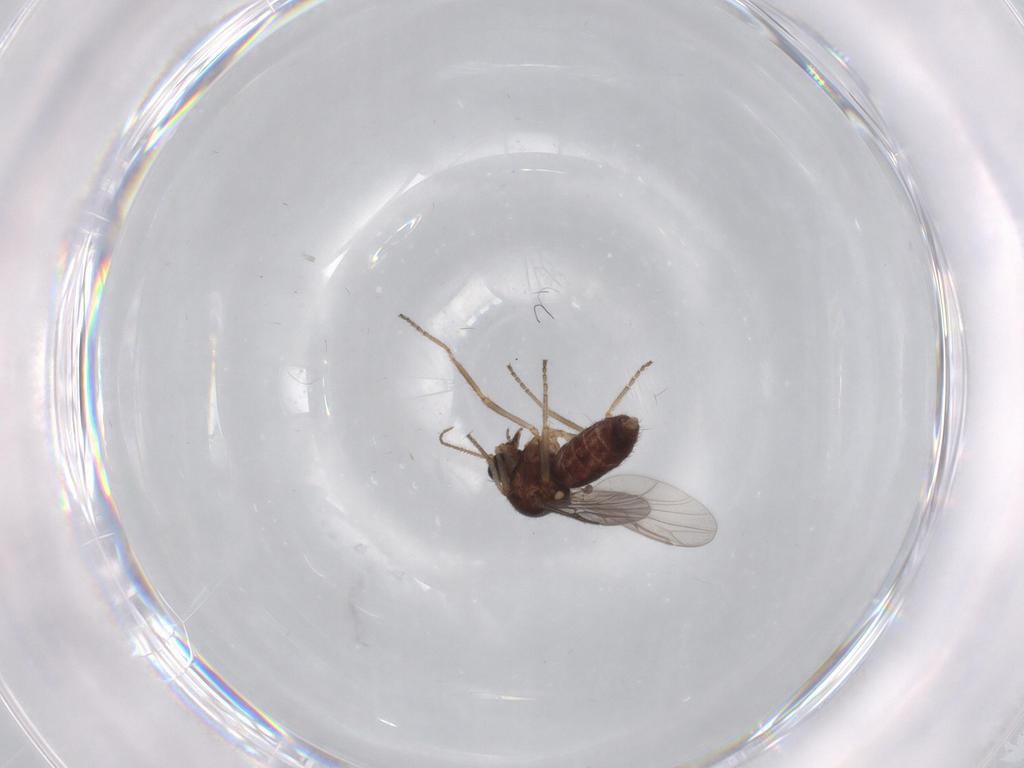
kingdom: Animalia
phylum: Arthropoda
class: Insecta
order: Diptera
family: Ceratopogonidae
